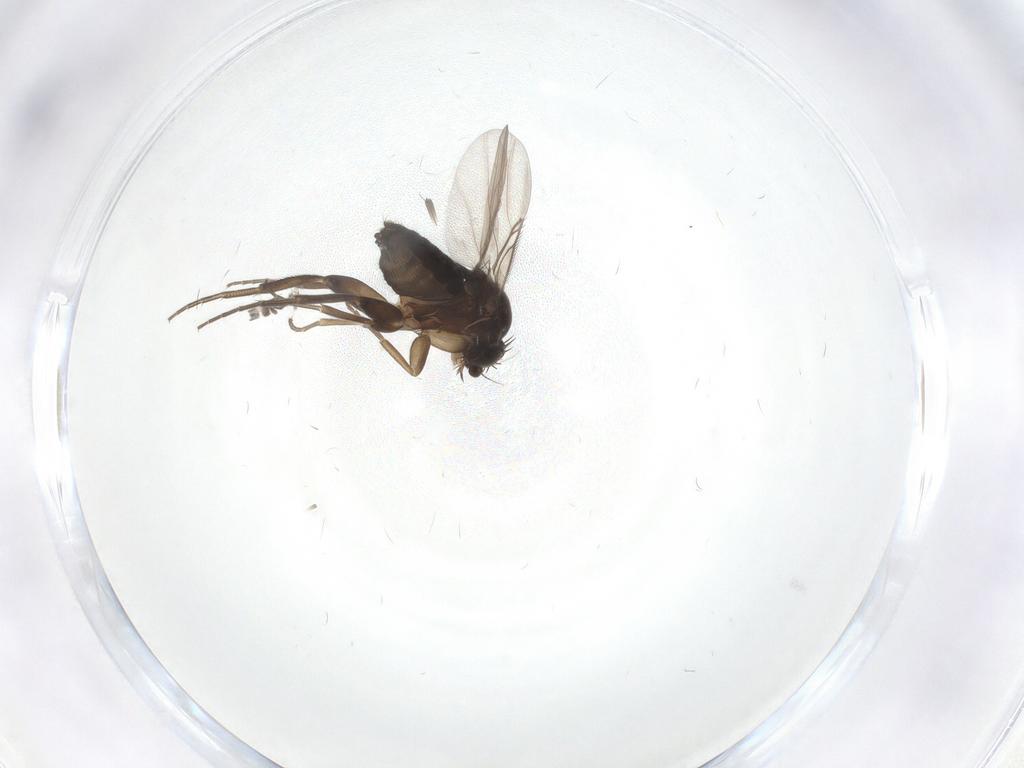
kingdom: Animalia
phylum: Arthropoda
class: Insecta
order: Diptera
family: Phoridae
